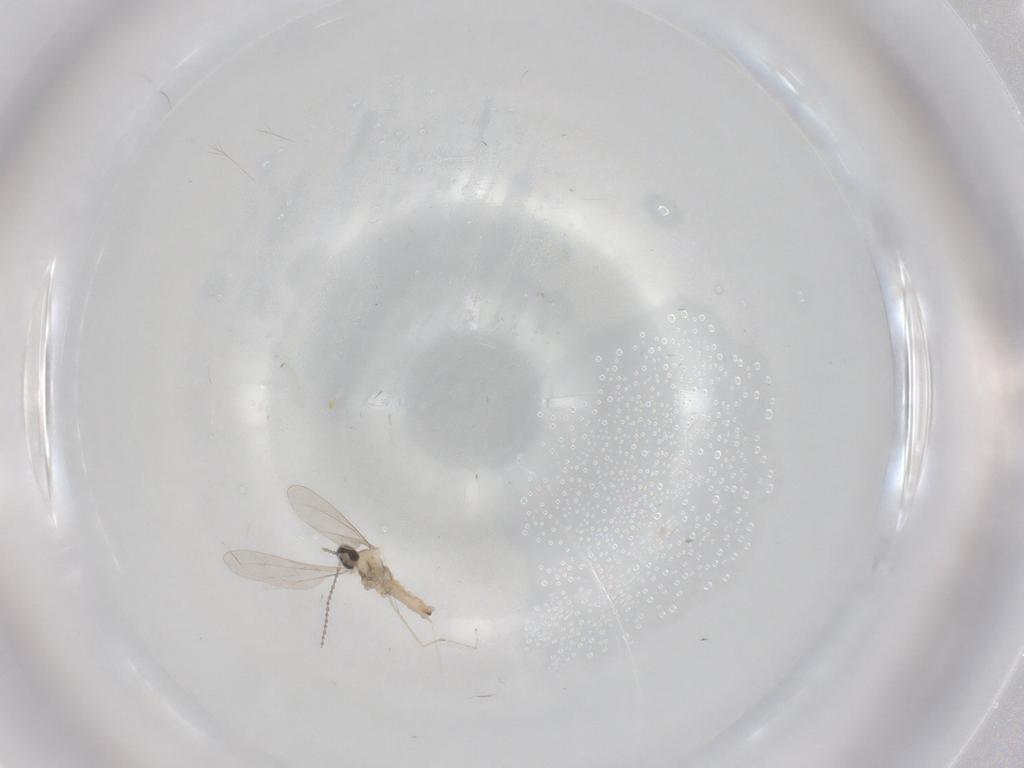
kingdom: Animalia
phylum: Arthropoda
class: Insecta
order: Diptera
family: Cecidomyiidae
